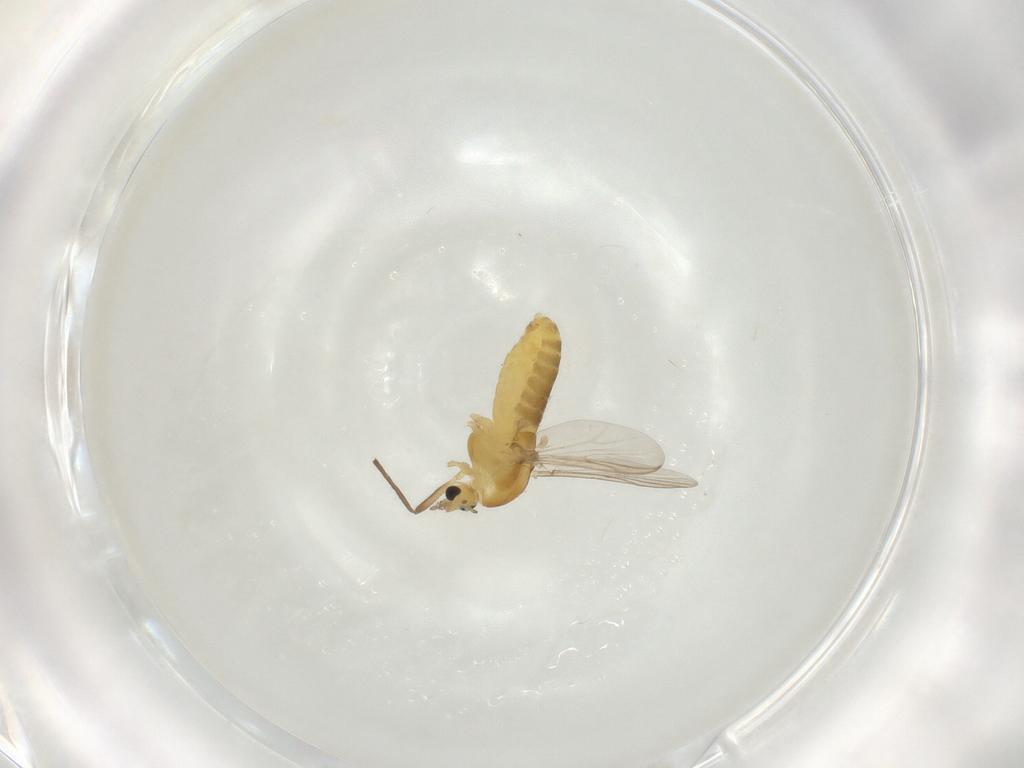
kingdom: Animalia
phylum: Arthropoda
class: Insecta
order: Diptera
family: Chironomidae
